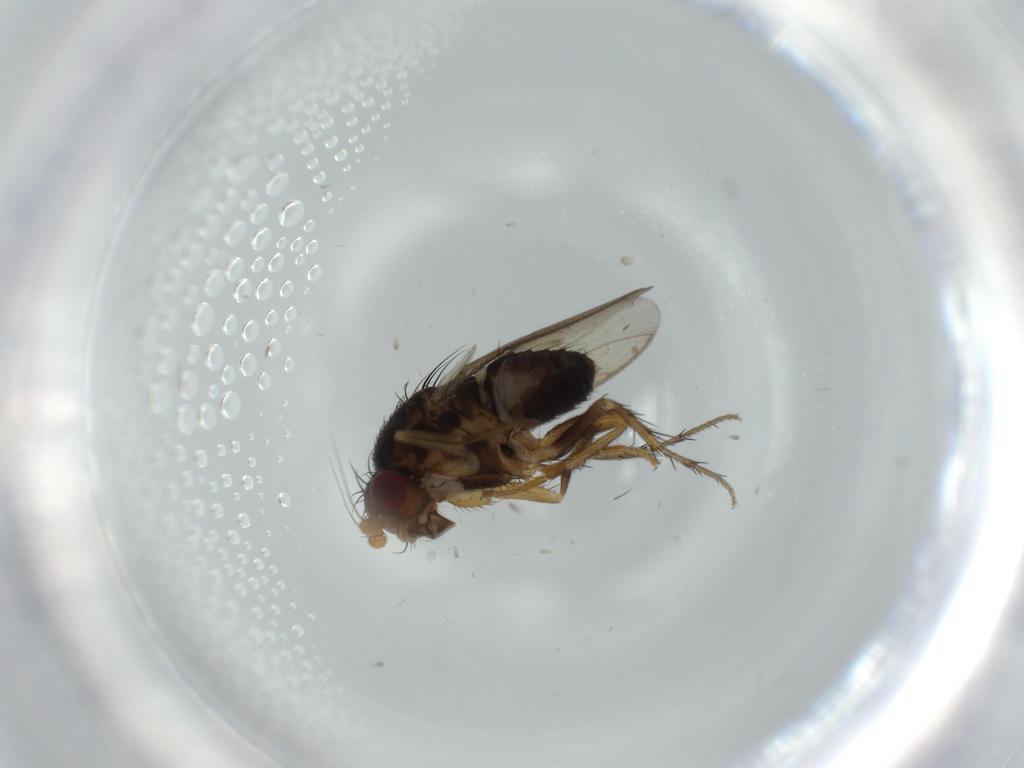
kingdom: Animalia
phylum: Arthropoda
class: Insecta
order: Diptera
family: Sphaeroceridae
